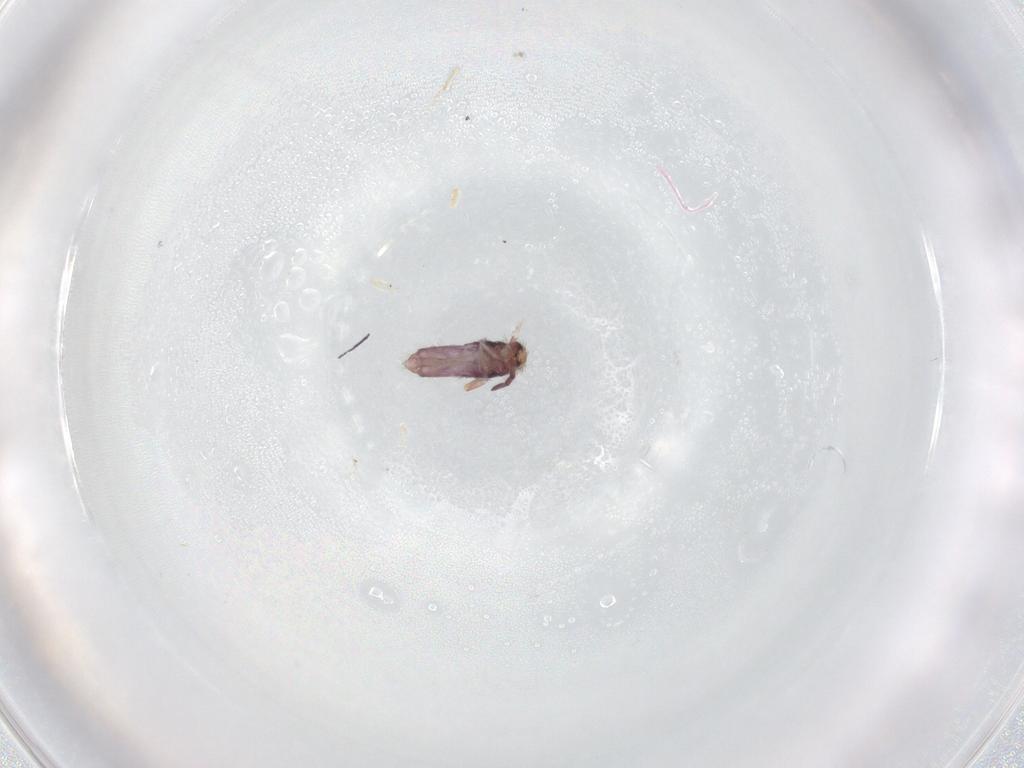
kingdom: Animalia
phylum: Arthropoda
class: Collembola
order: Entomobryomorpha
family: Entomobryidae
